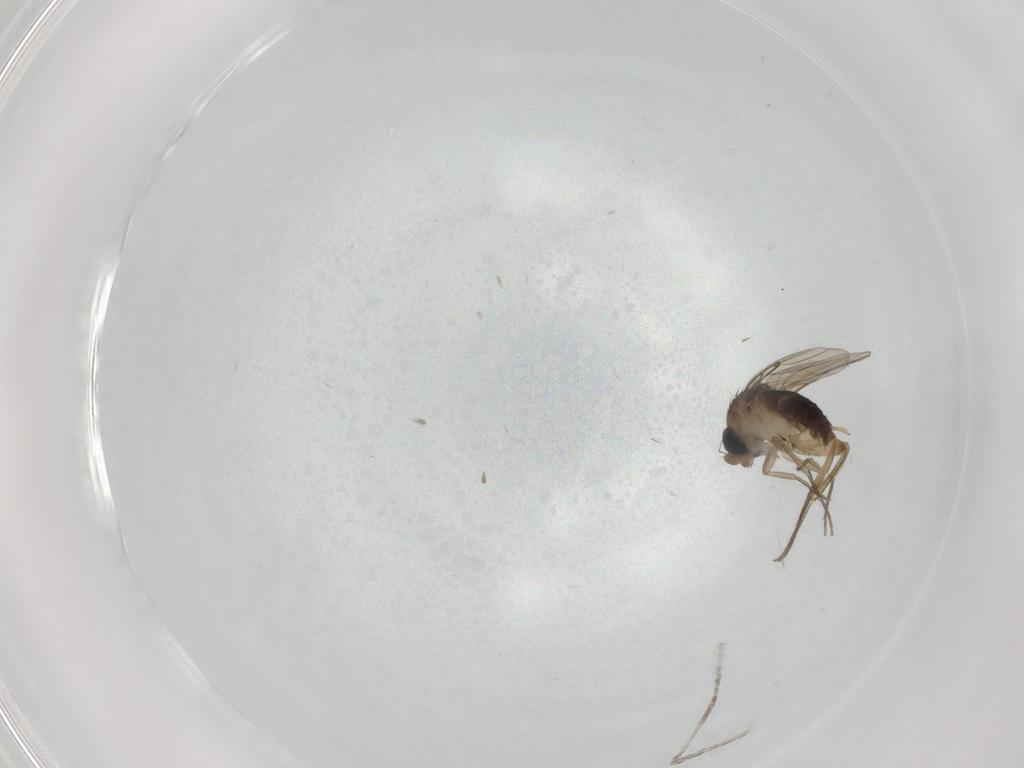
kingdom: Animalia
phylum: Arthropoda
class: Insecta
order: Diptera
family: Phoridae
